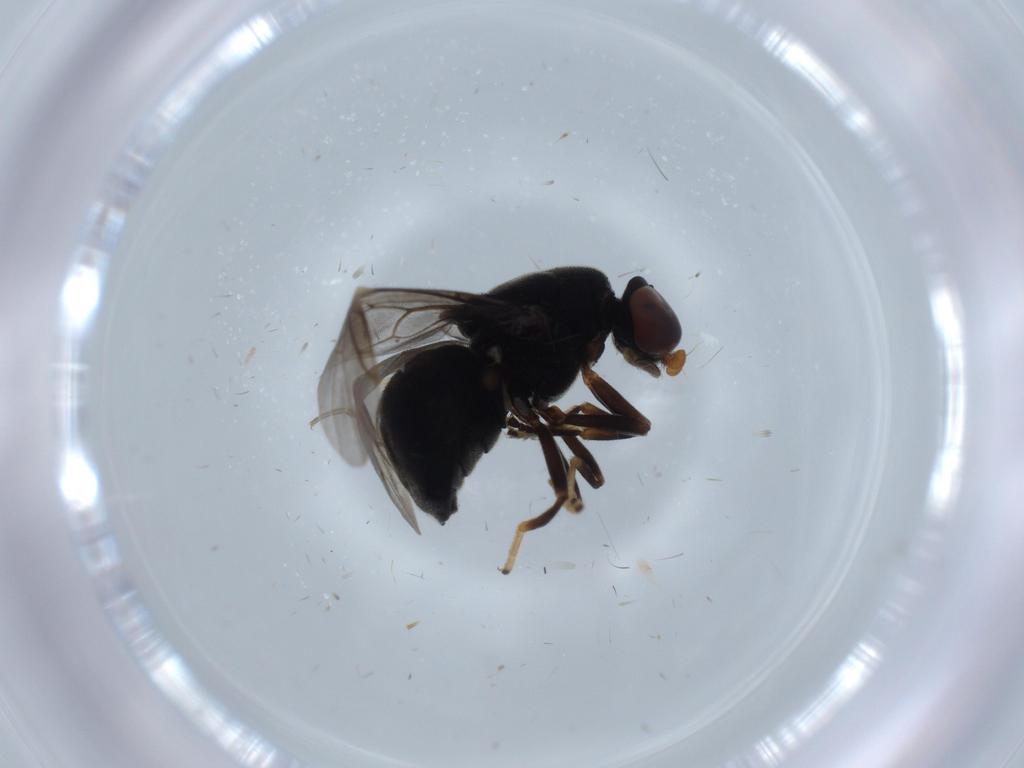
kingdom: Animalia
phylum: Arthropoda
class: Insecta
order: Diptera
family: Stratiomyidae
